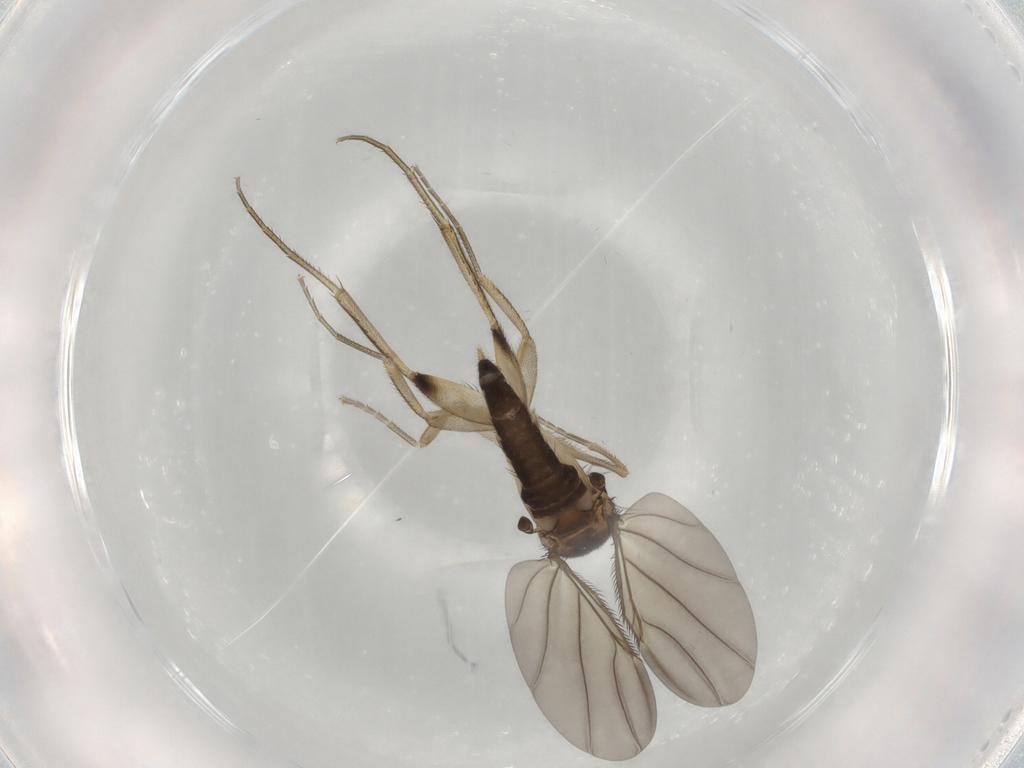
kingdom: Animalia
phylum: Arthropoda
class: Insecta
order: Diptera
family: Phoridae
